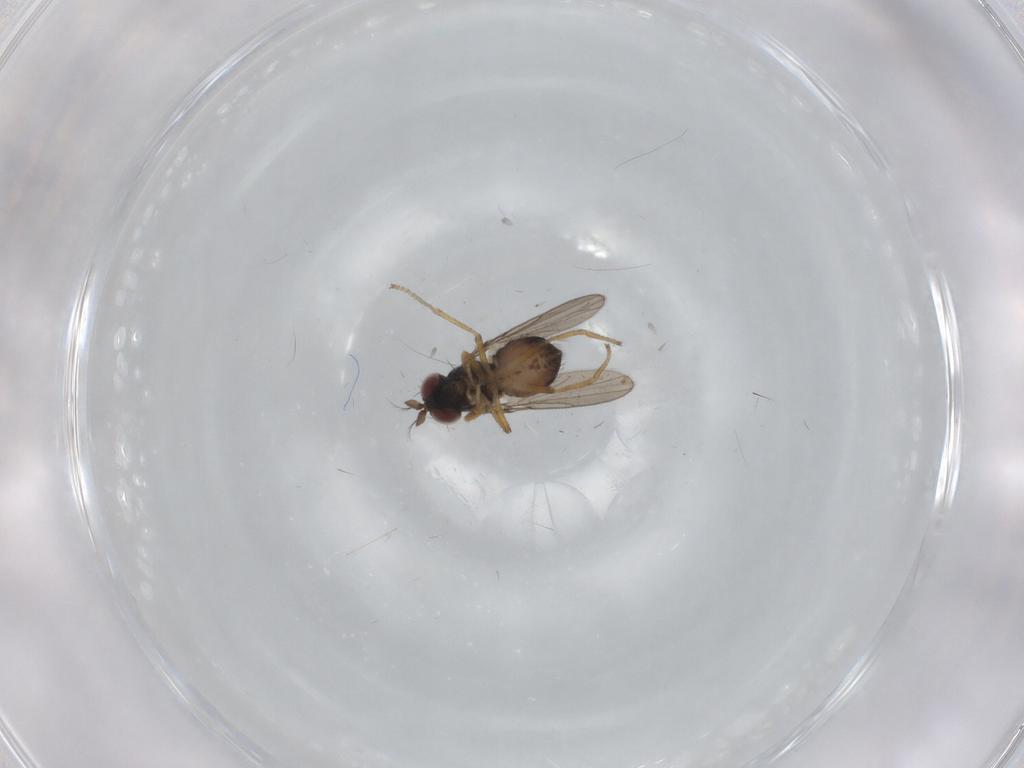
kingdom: Animalia
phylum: Arthropoda
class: Insecta
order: Diptera
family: Ephydridae
